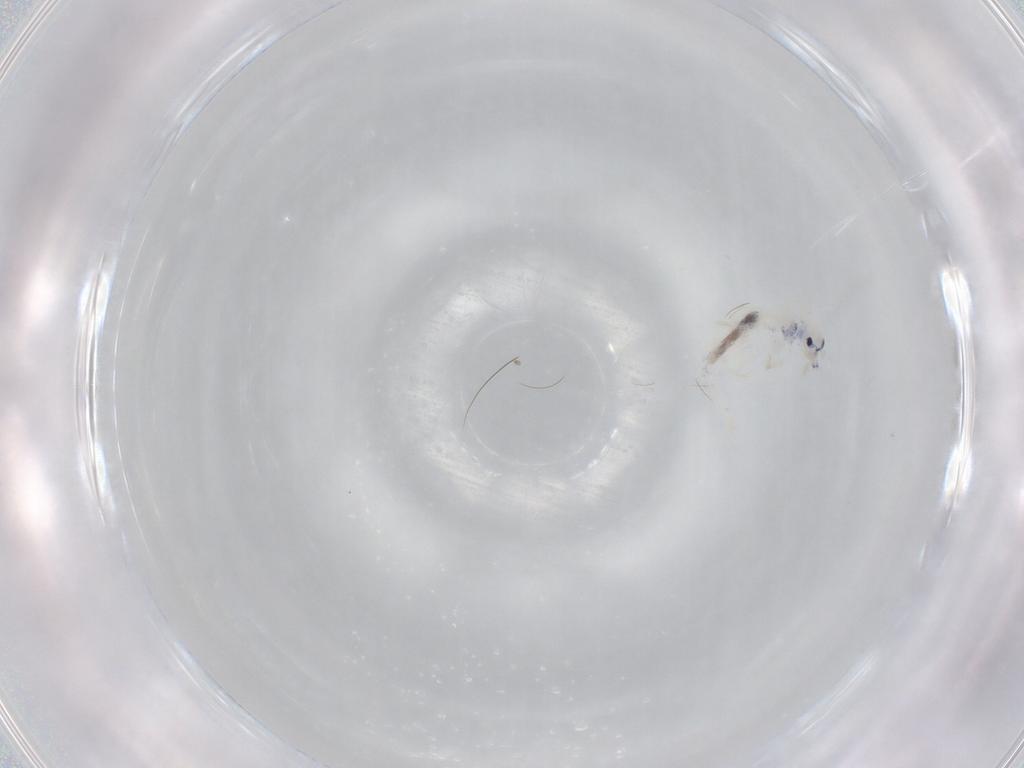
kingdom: Animalia
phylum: Arthropoda
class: Collembola
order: Entomobryomorpha
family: Entomobryidae
